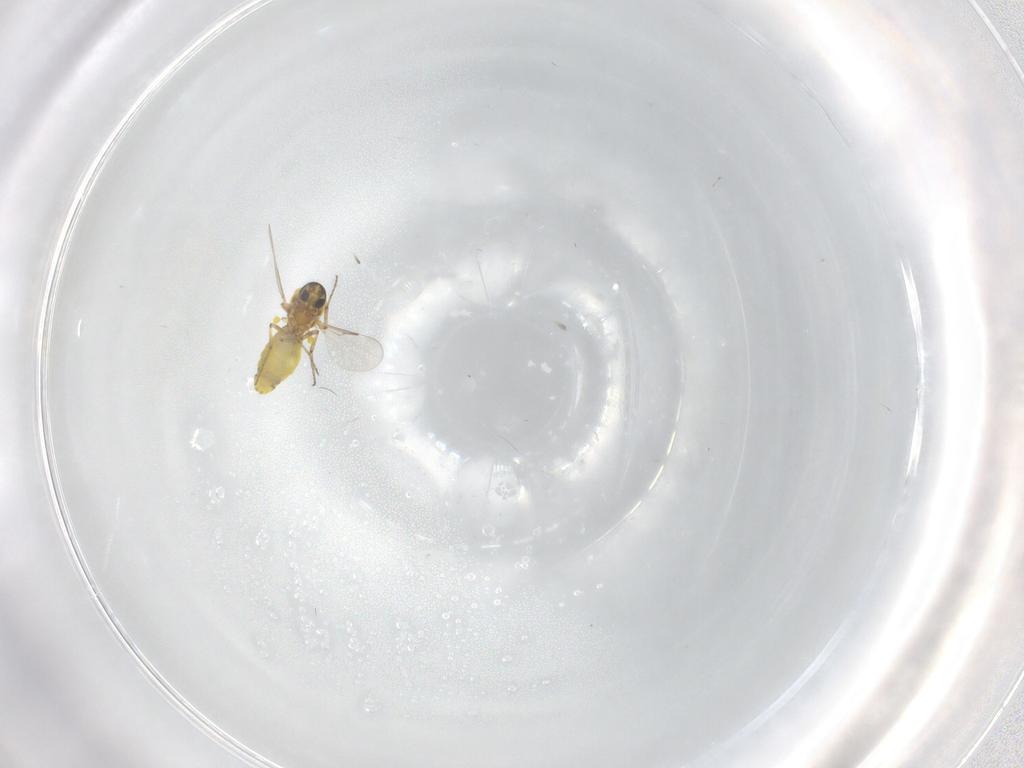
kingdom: Animalia
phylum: Arthropoda
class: Insecta
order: Diptera
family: Ceratopogonidae
